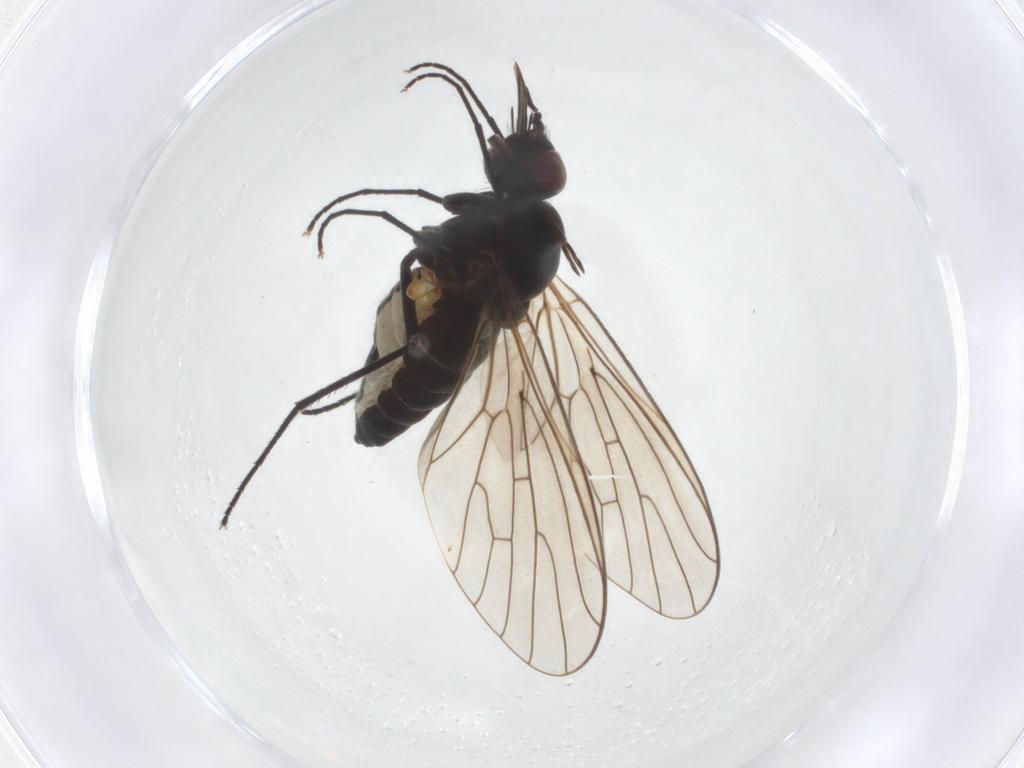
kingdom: Animalia
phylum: Arthropoda
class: Insecta
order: Diptera
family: Bombyliidae
